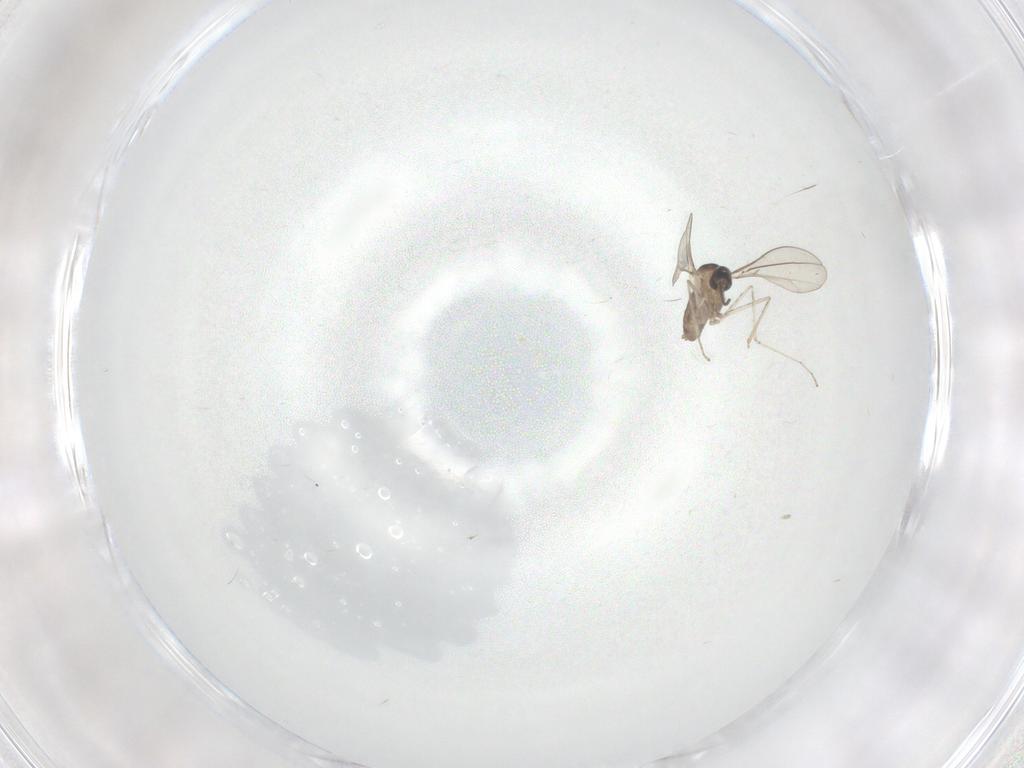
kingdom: Animalia
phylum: Arthropoda
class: Insecta
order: Diptera
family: Cecidomyiidae
